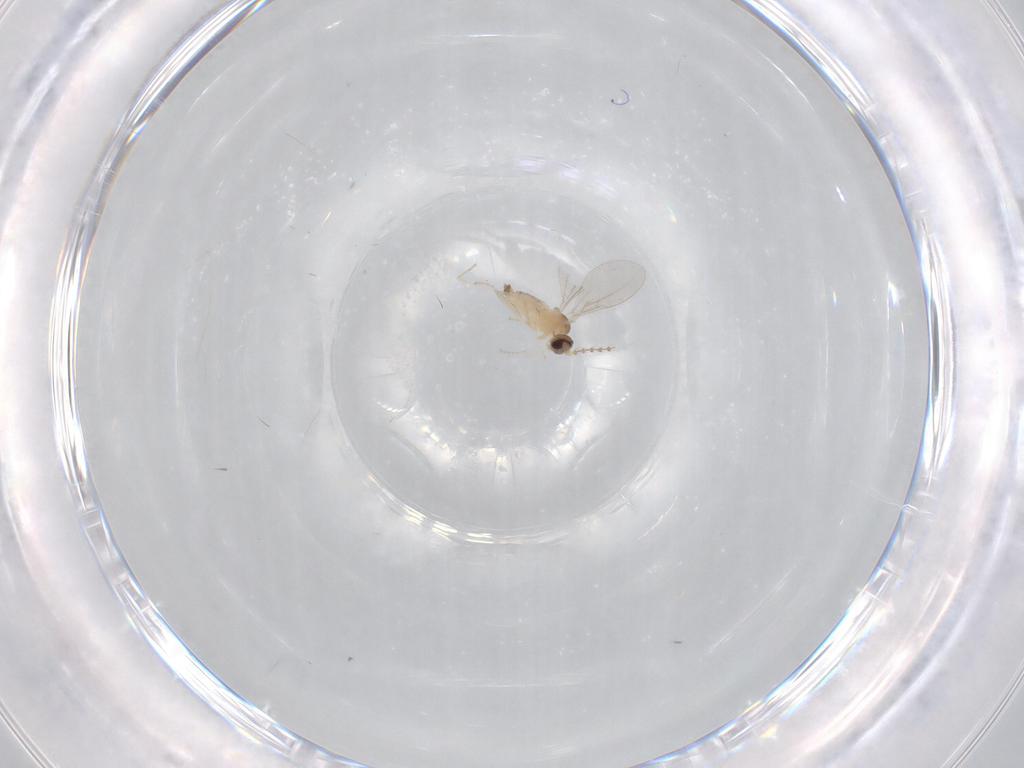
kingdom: Animalia
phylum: Arthropoda
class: Insecta
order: Diptera
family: Cecidomyiidae
